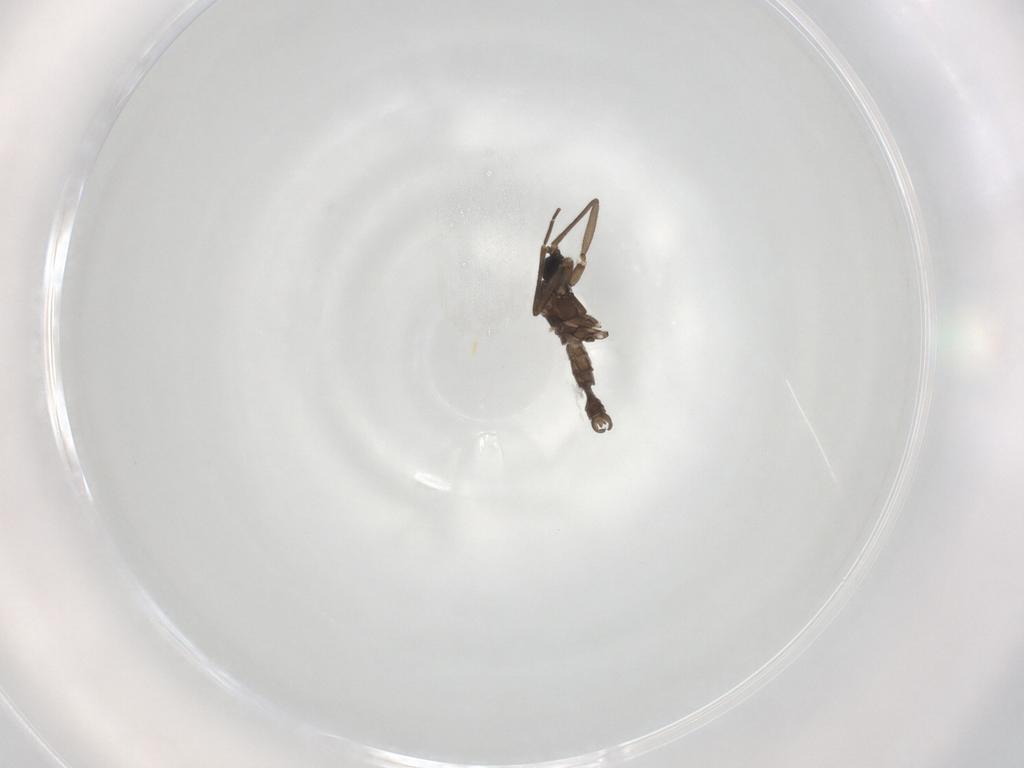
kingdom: Animalia
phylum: Arthropoda
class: Insecta
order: Diptera
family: Sciaridae
